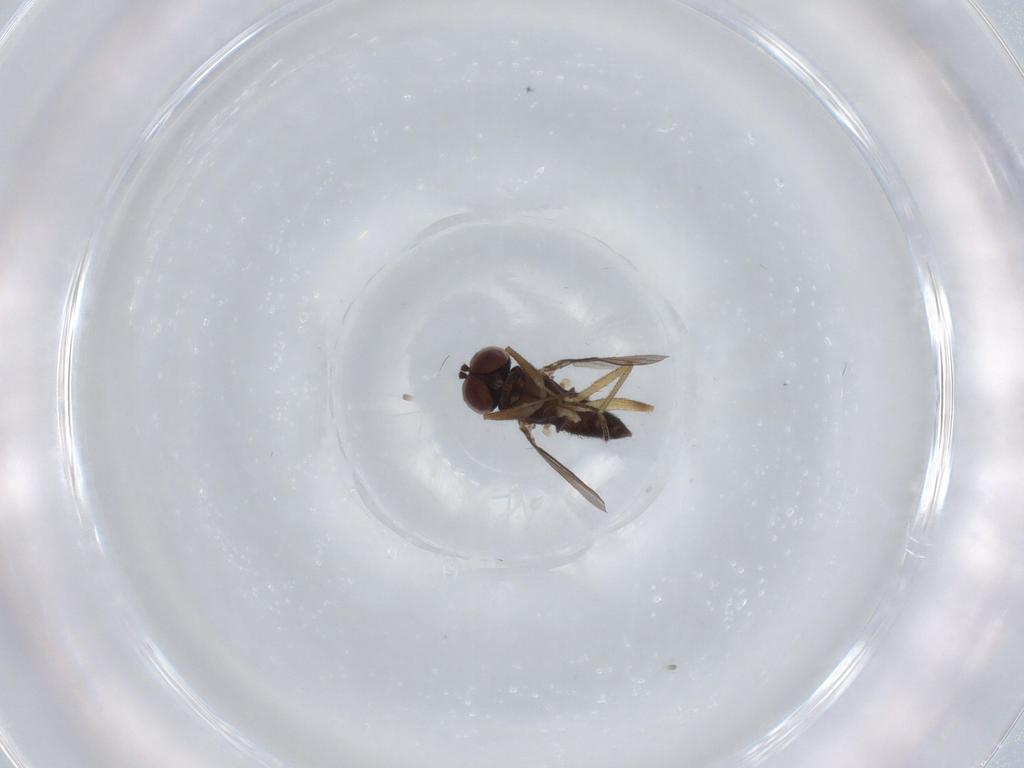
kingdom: Animalia
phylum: Arthropoda
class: Insecta
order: Diptera
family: Dolichopodidae
